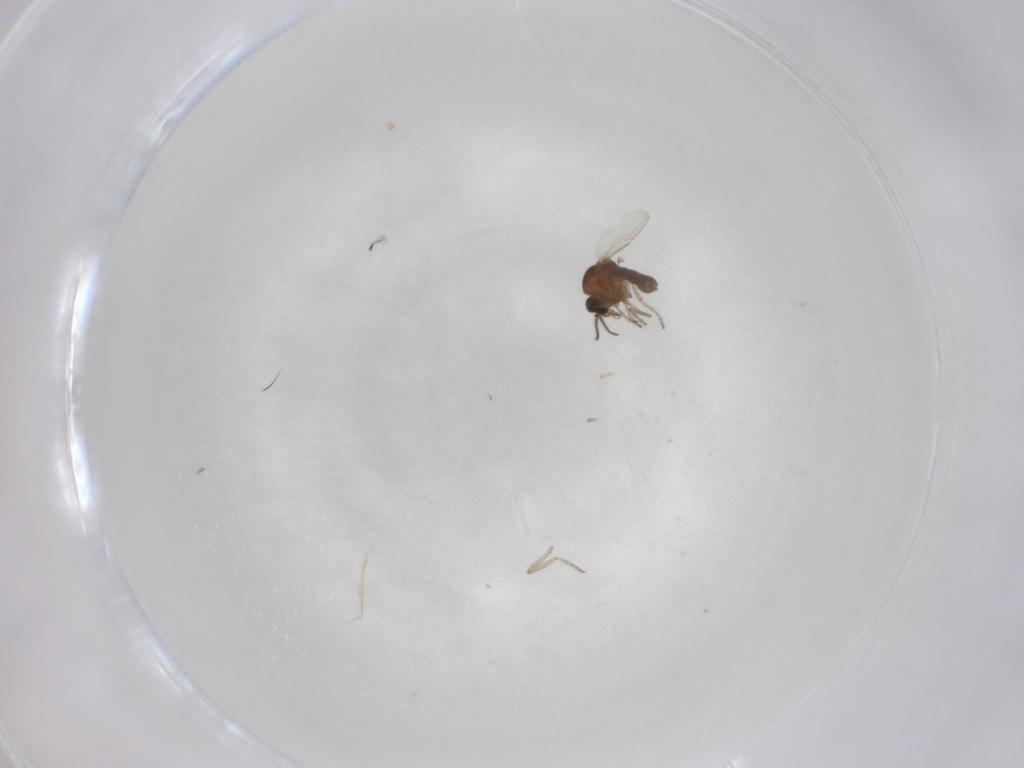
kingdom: Animalia
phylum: Arthropoda
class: Insecta
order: Diptera
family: Ceratopogonidae
